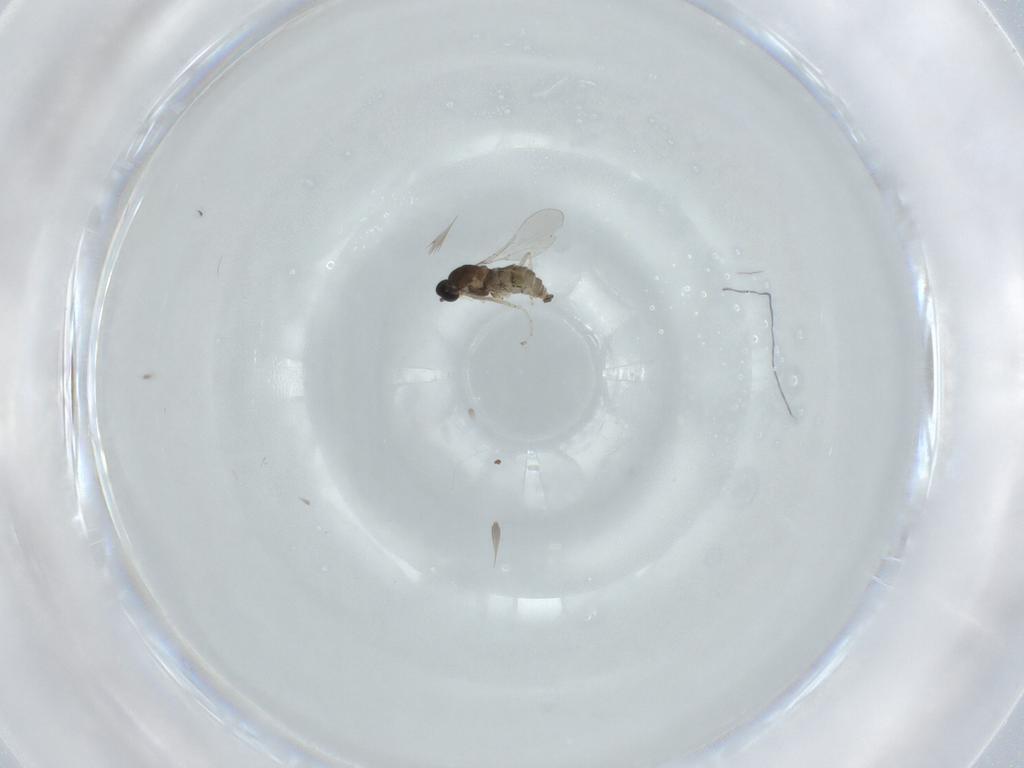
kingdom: Animalia
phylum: Arthropoda
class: Insecta
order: Diptera
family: Cecidomyiidae
